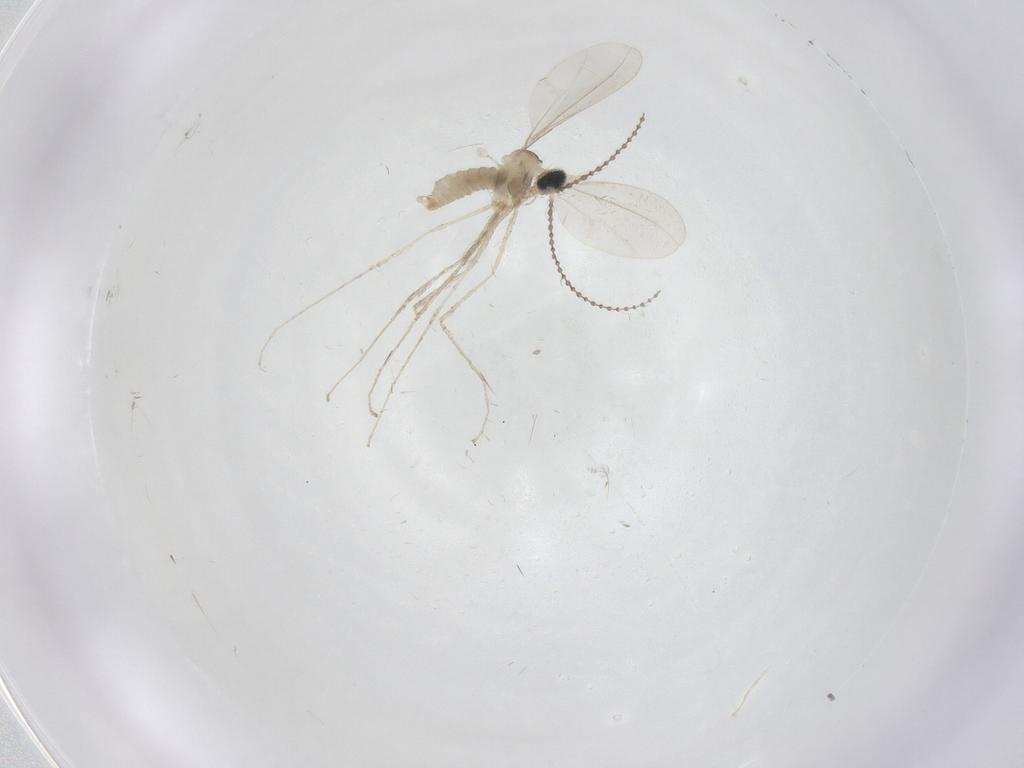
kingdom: Animalia
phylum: Arthropoda
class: Insecta
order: Diptera
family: Cecidomyiidae
